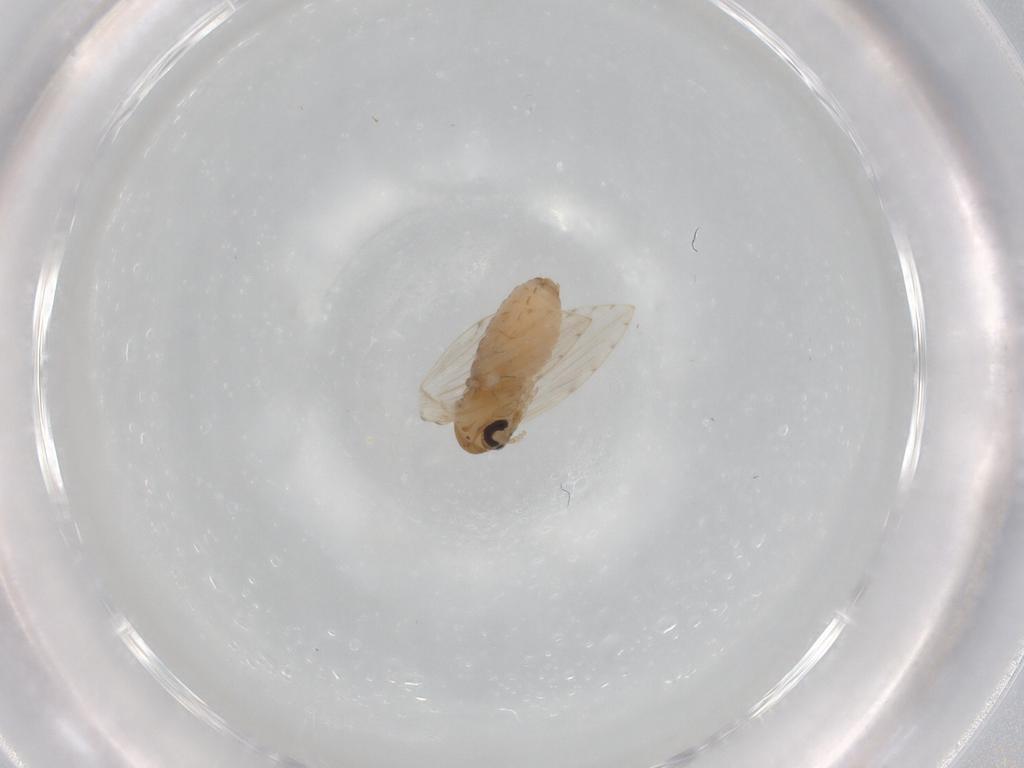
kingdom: Animalia
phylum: Arthropoda
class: Insecta
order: Diptera
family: Psychodidae
